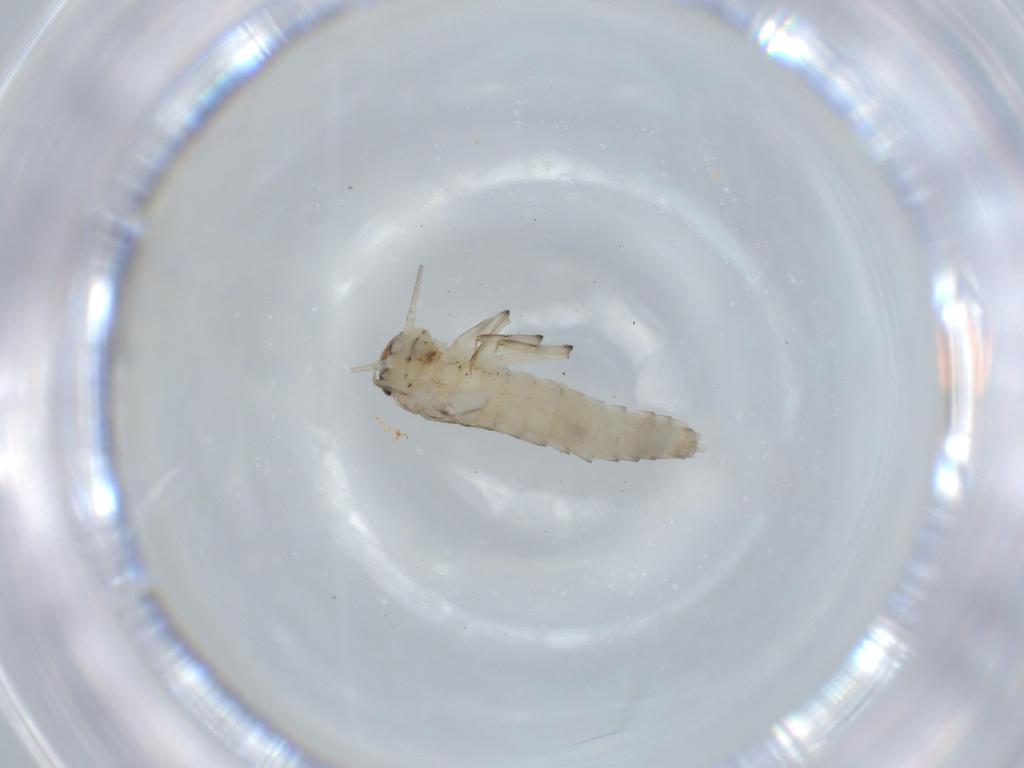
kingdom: Animalia
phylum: Arthropoda
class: Insecta
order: Ephemeroptera
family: Baetidae
